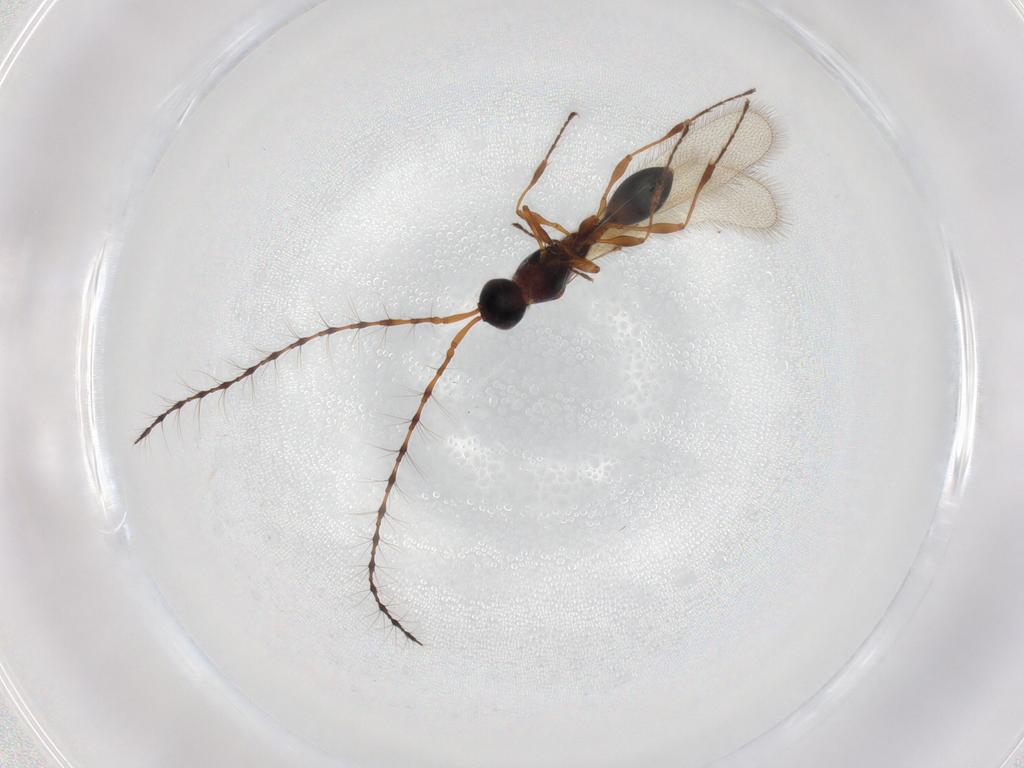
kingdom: Animalia
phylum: Arthropoda
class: Insecta
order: Hymenoptera
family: Diapriidae
